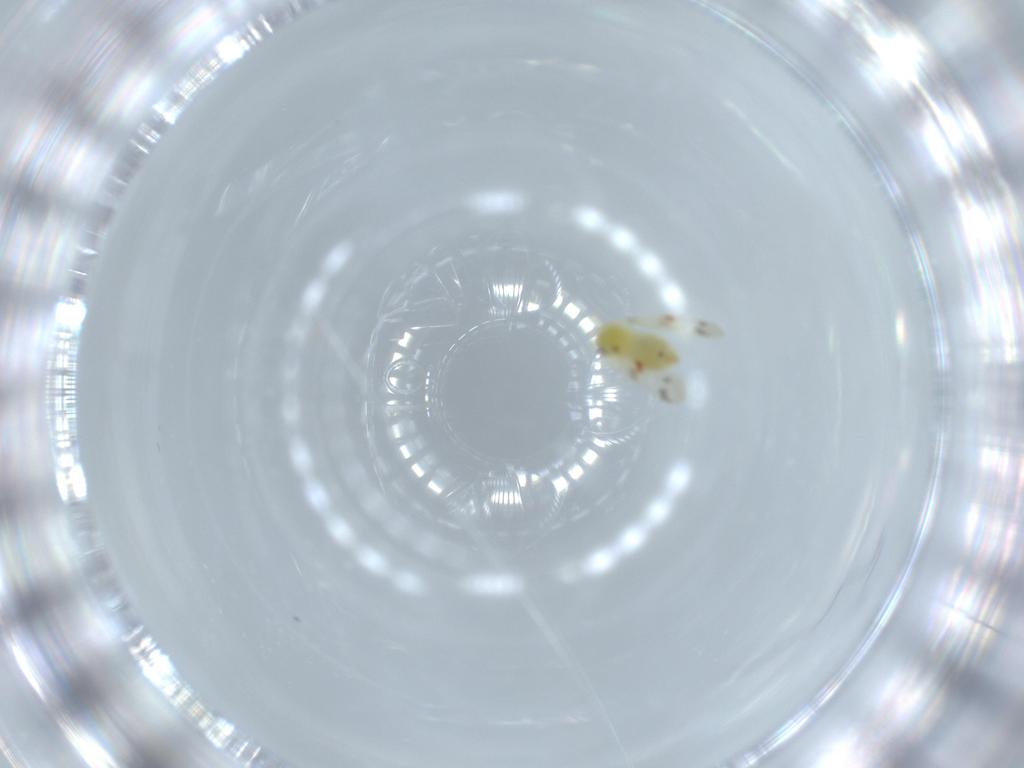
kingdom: Animalia
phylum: Arthropoda
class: Insecta
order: Hemiptera
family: Aleyrodidae
